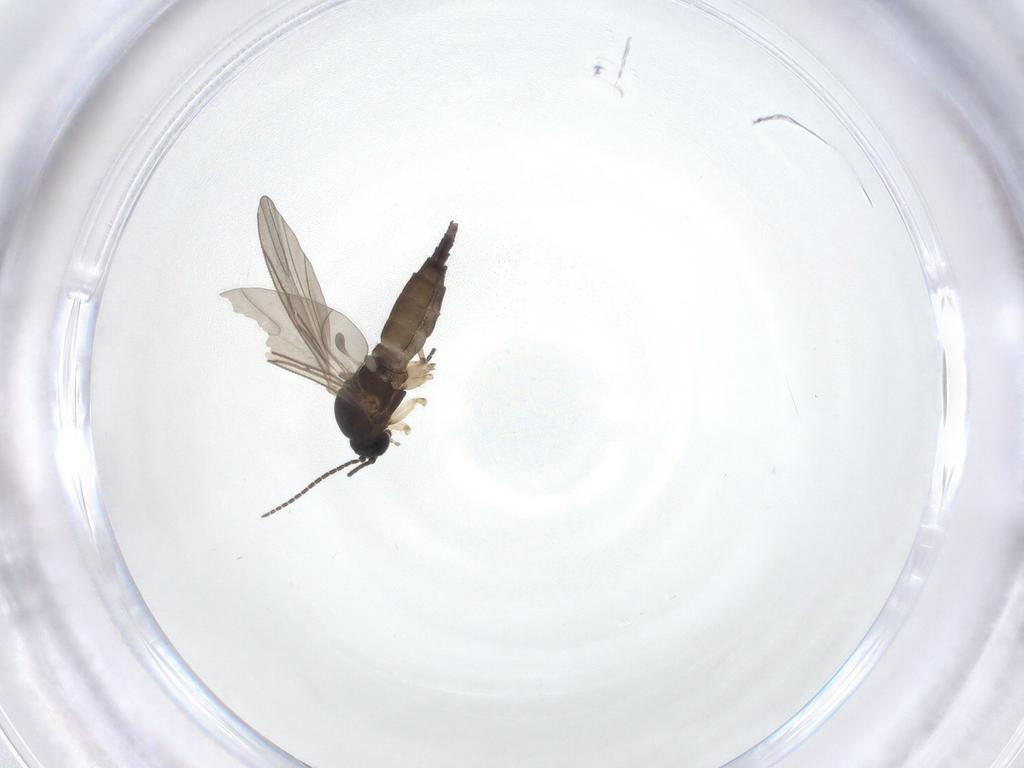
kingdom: Animalia
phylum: Arthropoda
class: Insecta
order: Diptera
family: Sciaridae
